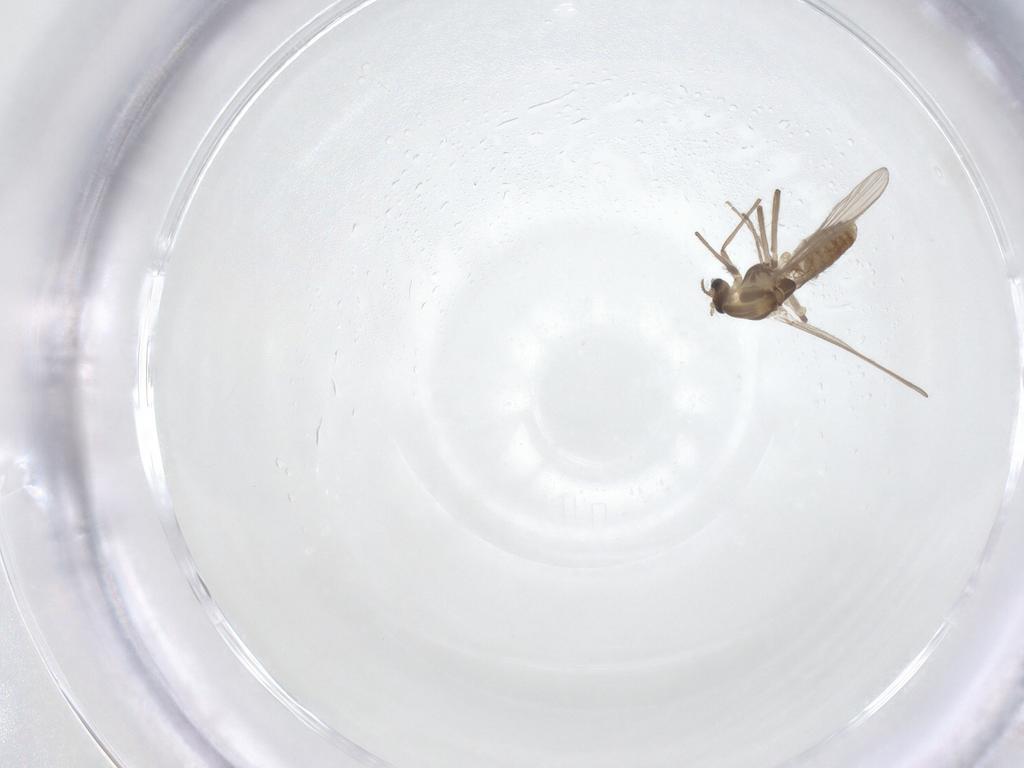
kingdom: Animalia
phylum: Arthropoda
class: Insecta
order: Diptera
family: Chironomidae
